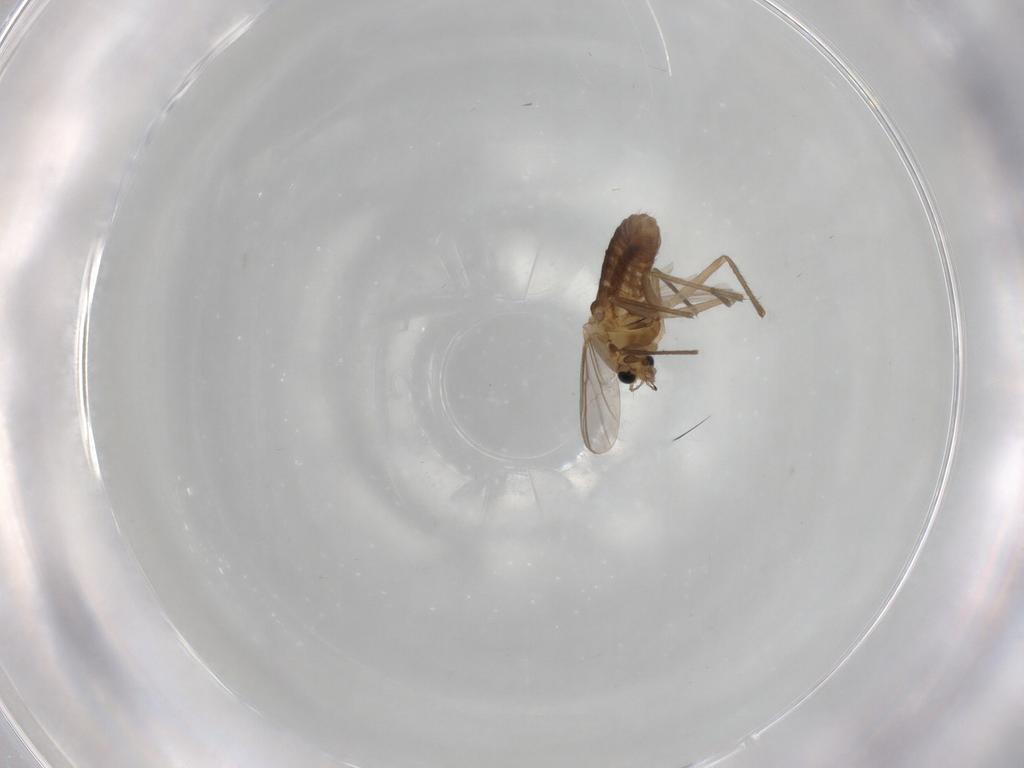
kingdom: Animalia
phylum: Arthropoda
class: Insecta
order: Diptera
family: Chironomidae
